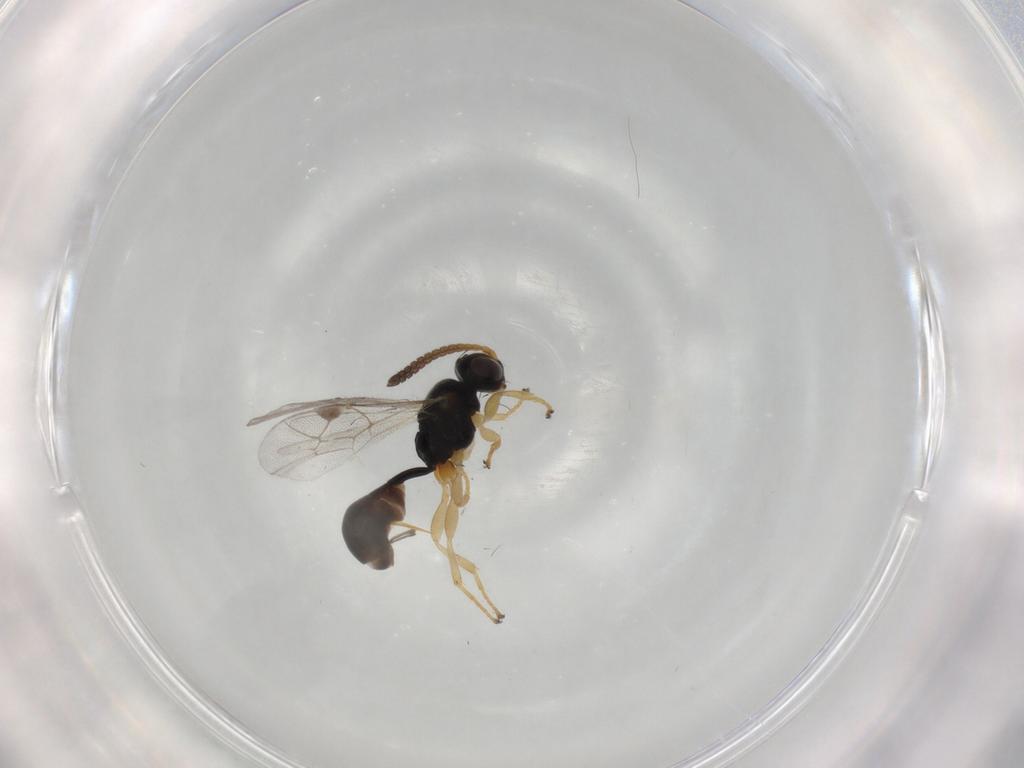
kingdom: Animalia
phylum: Arthropoda
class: Insecta
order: Hymenoptera
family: Ichneumonidae
